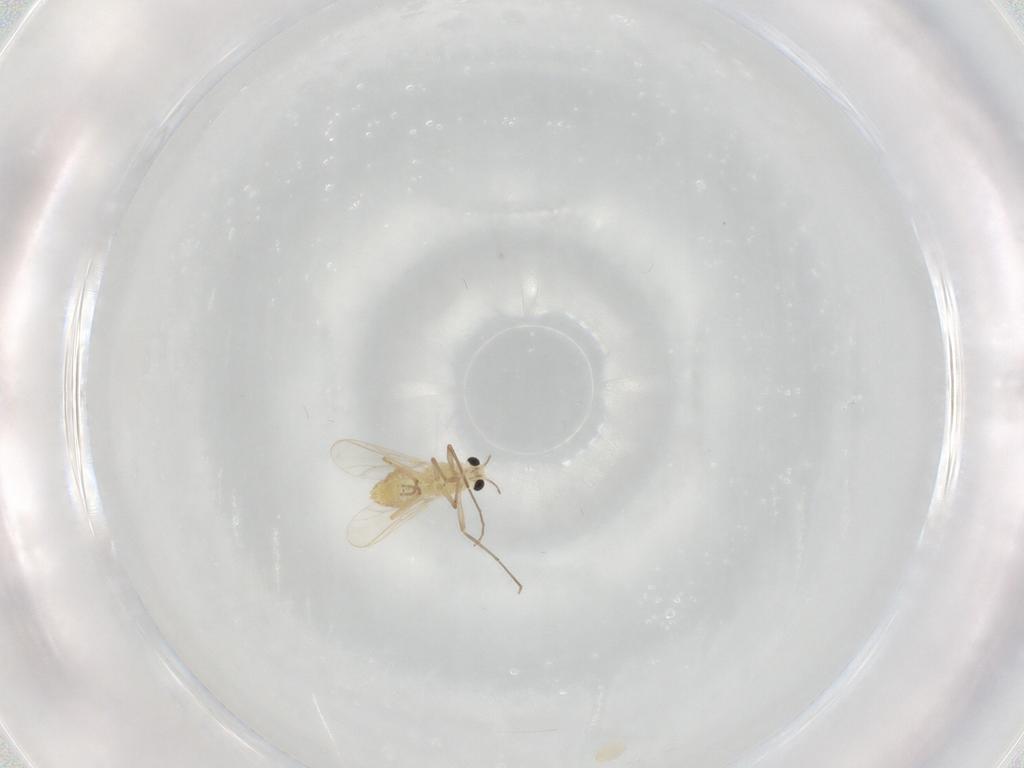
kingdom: Animalia
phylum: Arthropoda
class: Insecta
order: Diptera
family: Chironomidae
